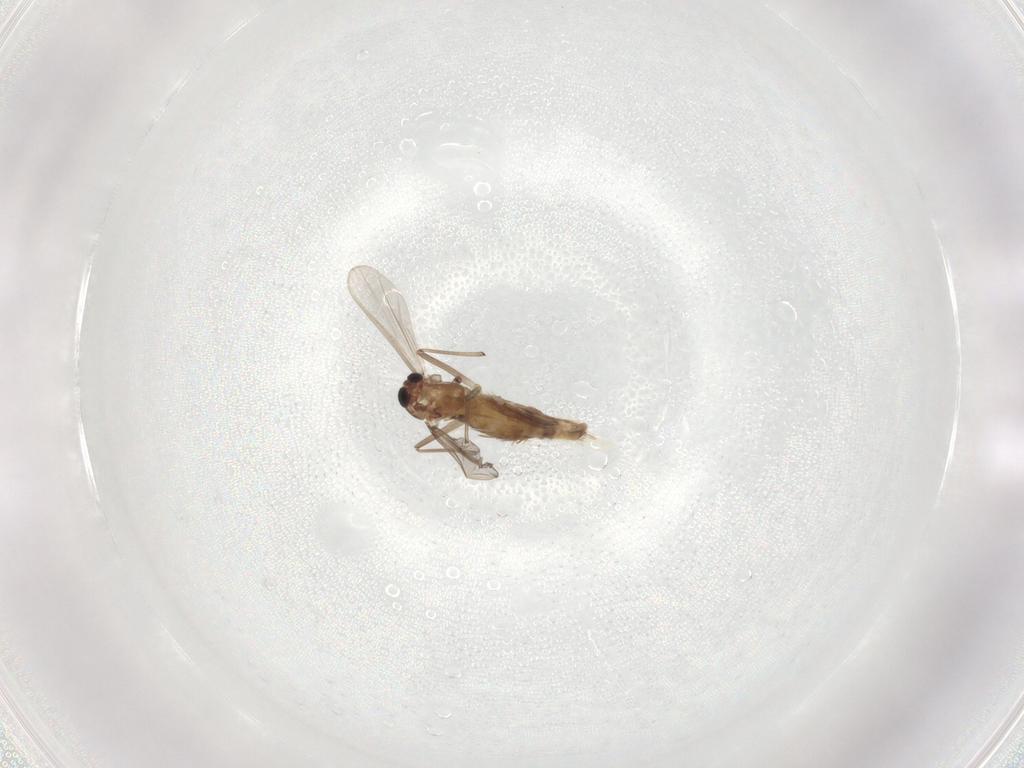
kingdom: Animalia
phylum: Arthropoda
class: Insecta
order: Diptera
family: Chironomidae
